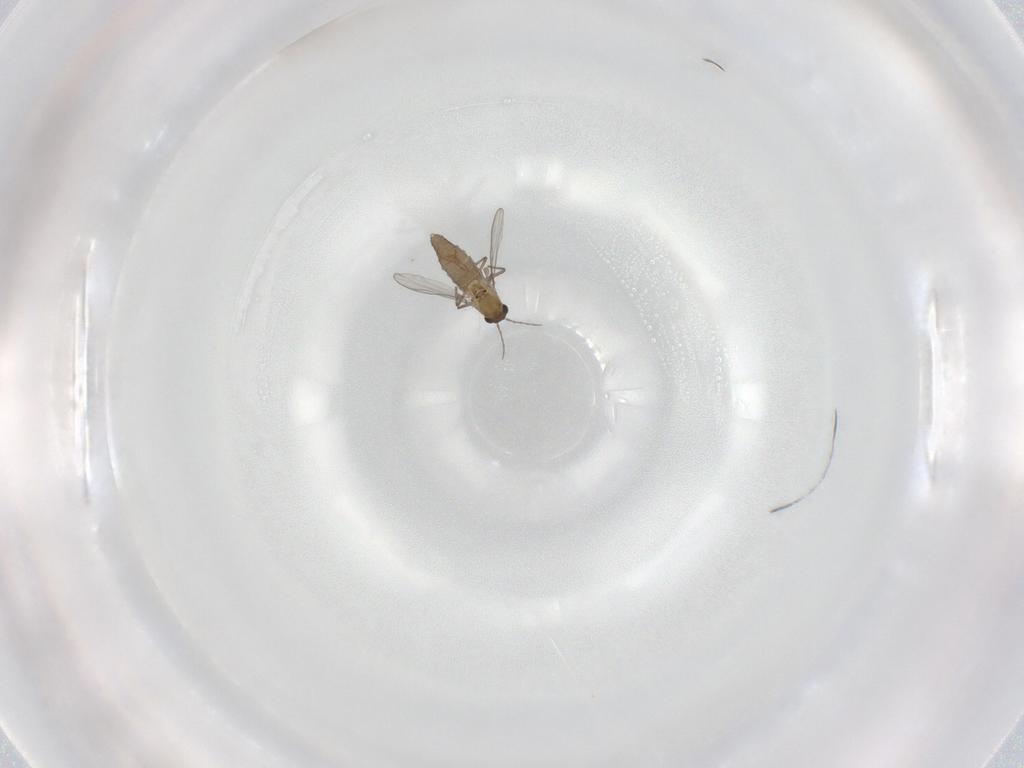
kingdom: Animalia
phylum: Arthropoda
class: Insecta
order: Diptera
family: Chironomidae
